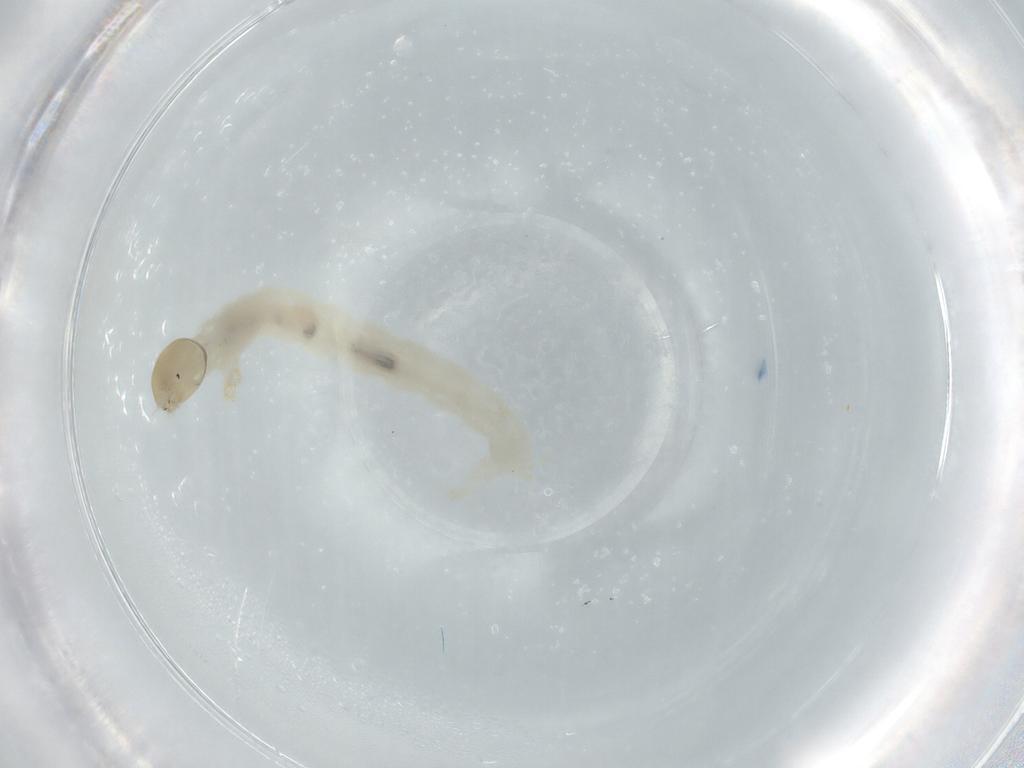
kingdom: Animalia
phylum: Arthropoda
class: Insecta
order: Diptera
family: Chironomidae
